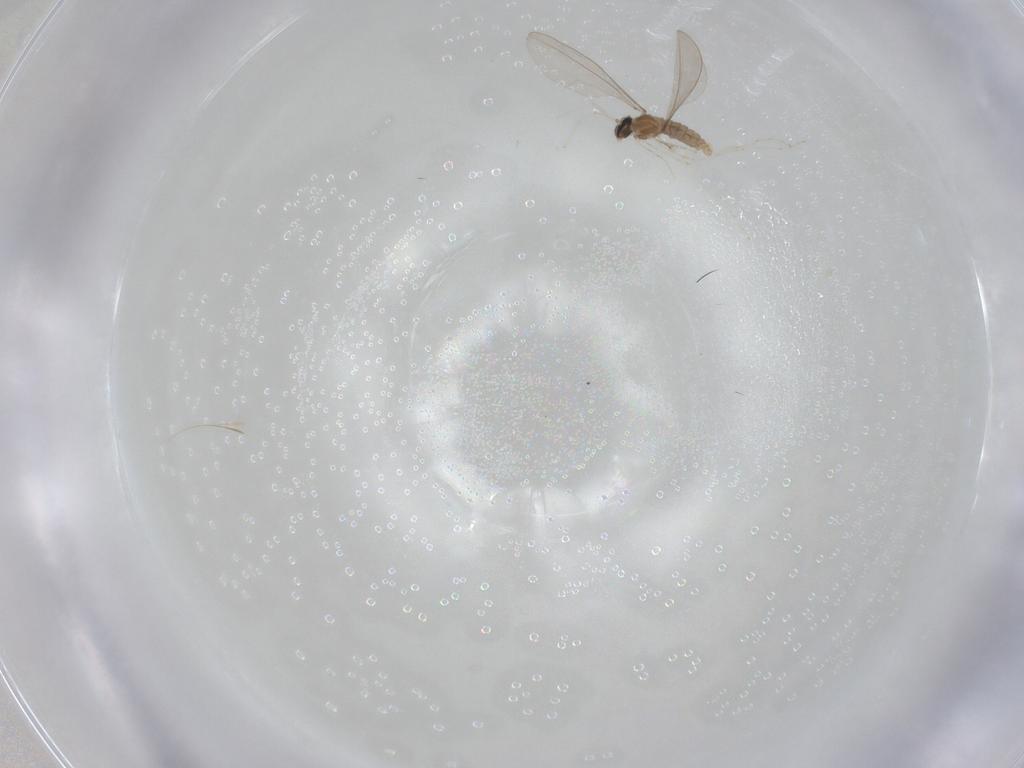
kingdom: Animalia
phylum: Arthropoda
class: Insecta
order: Diptera
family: Cecidomyiidae
